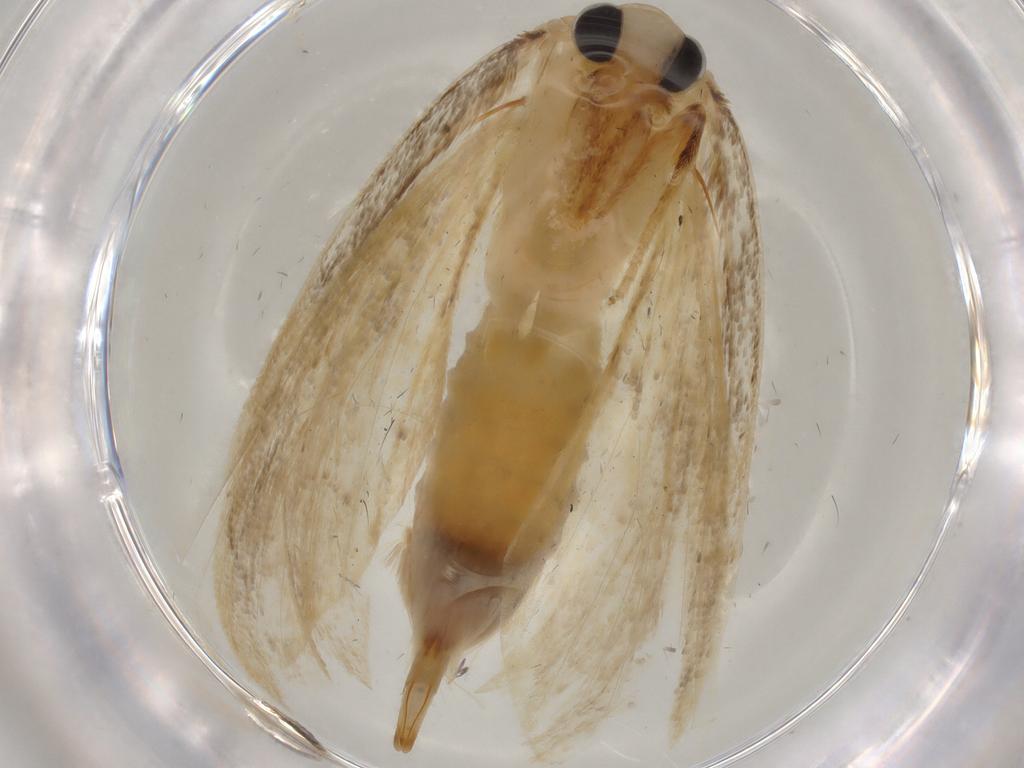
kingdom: Animalia
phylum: Arthropoda
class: Insecta
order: Lepidoptera
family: Psychidae
